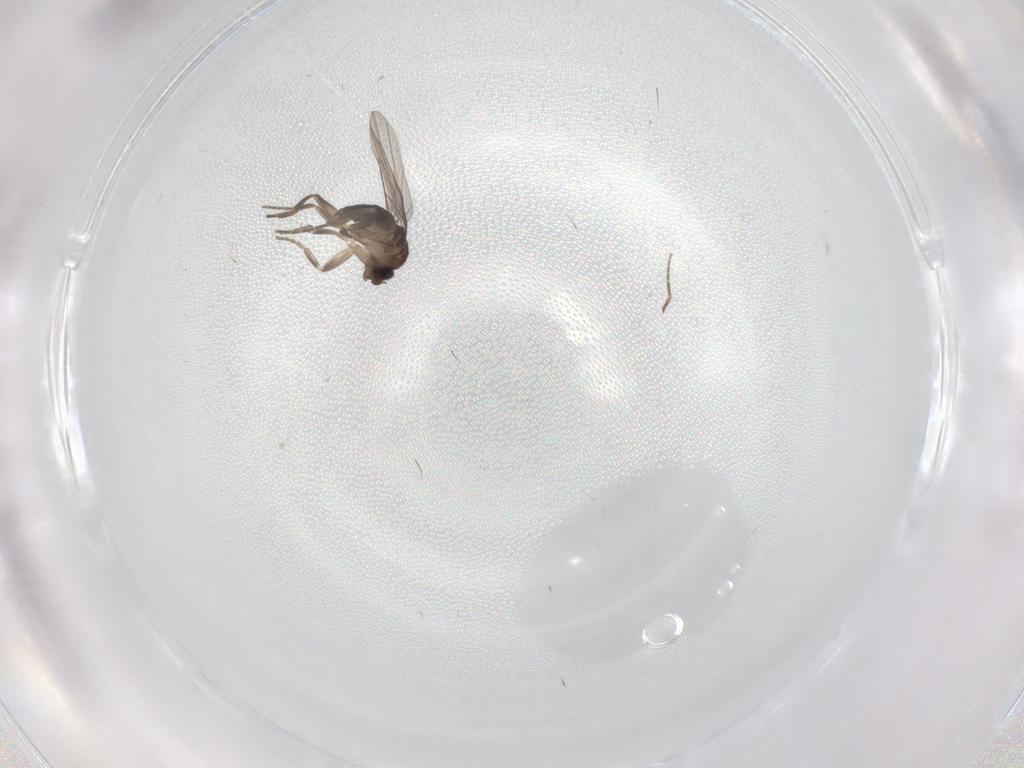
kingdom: Animalia
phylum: Arthropoda
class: Insecta
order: Diptera
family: Phoridae
